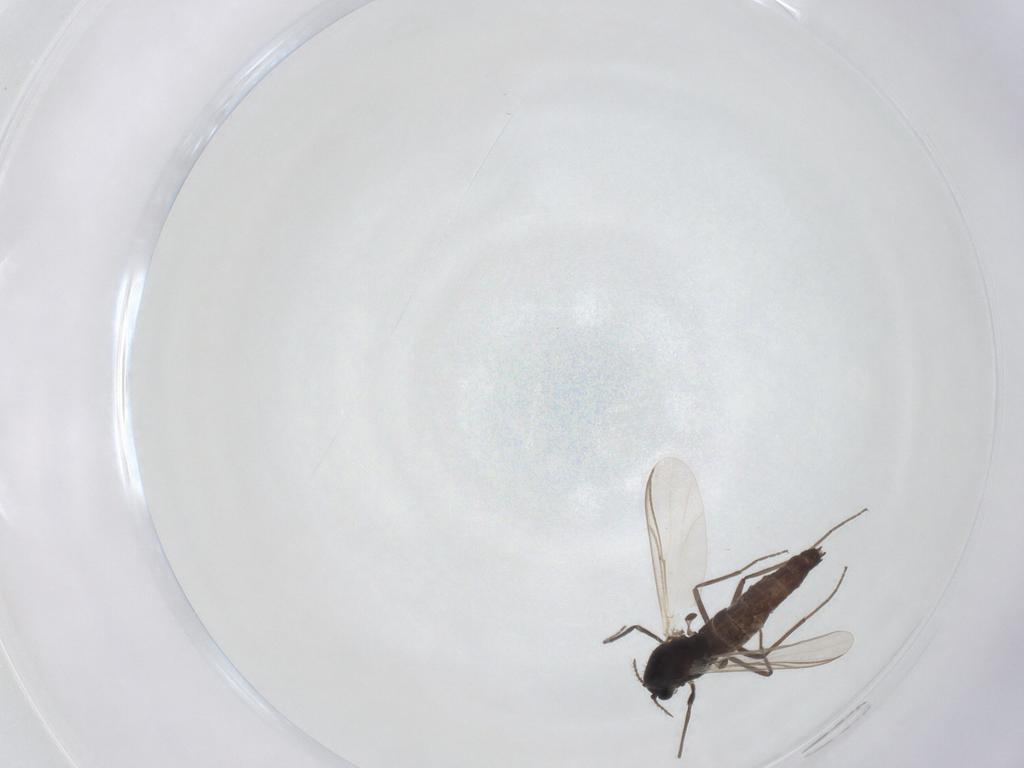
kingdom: Animalia
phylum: Arthropoda
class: Insecta
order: Diptera
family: Chironomidae
